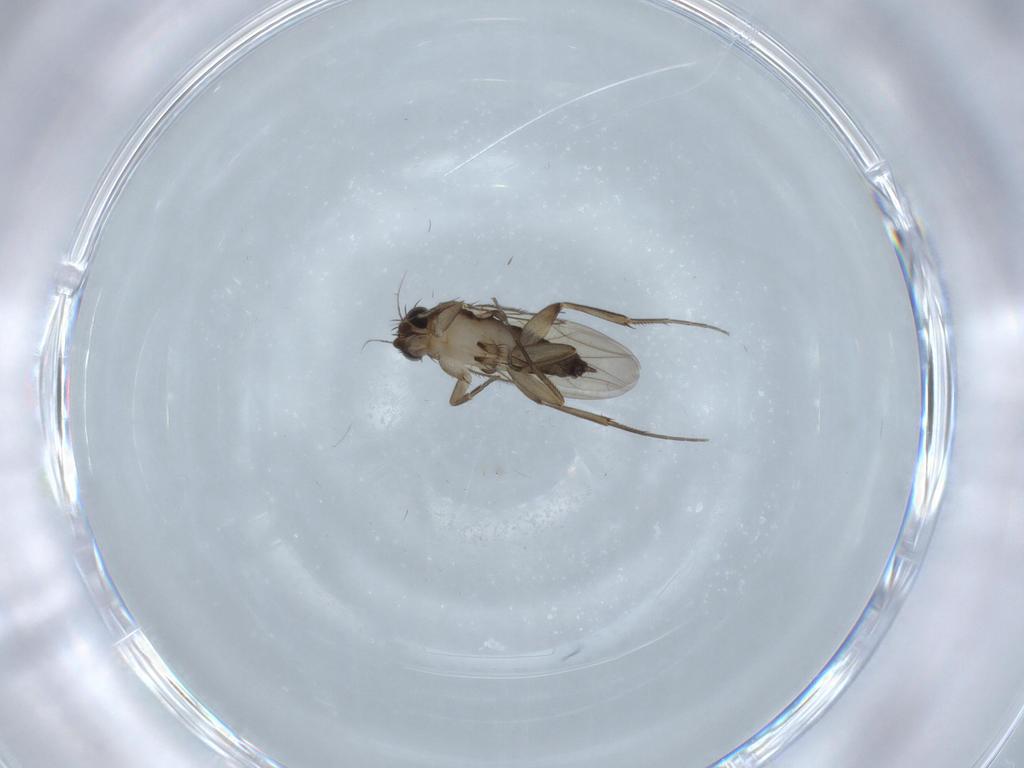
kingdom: Animalia
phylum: Arthropoda
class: Insecta
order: Diptera
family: Phoridae
